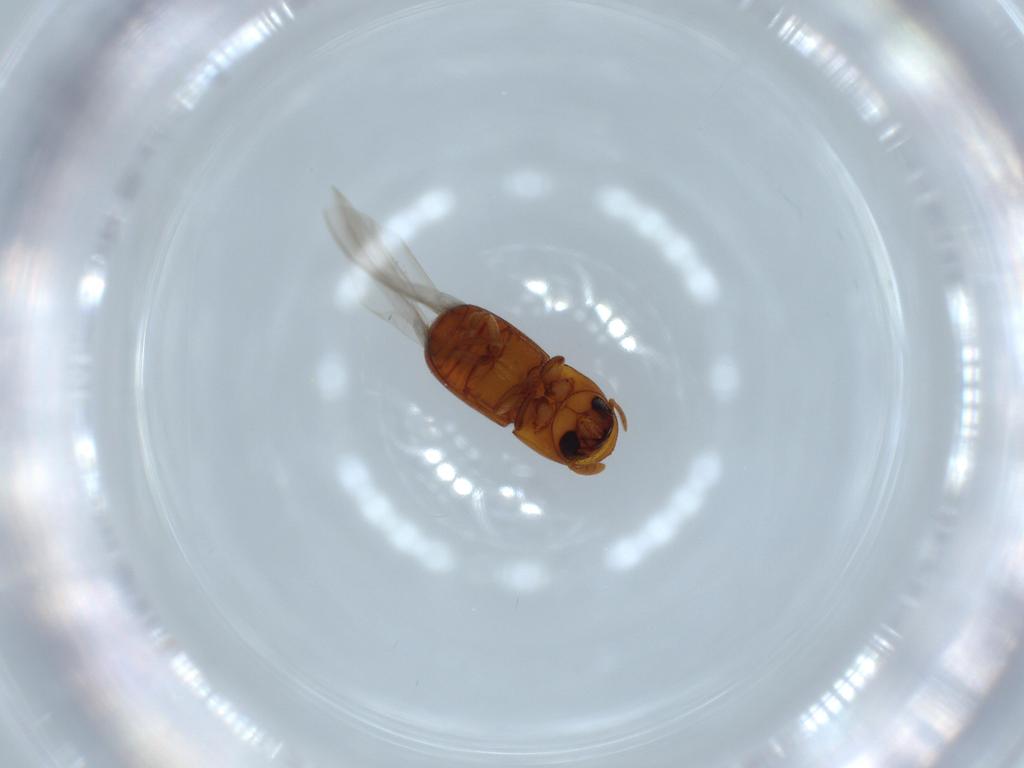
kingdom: Animalia
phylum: Arthropoda
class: Insecta
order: Coleoptera
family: Curculionidae
